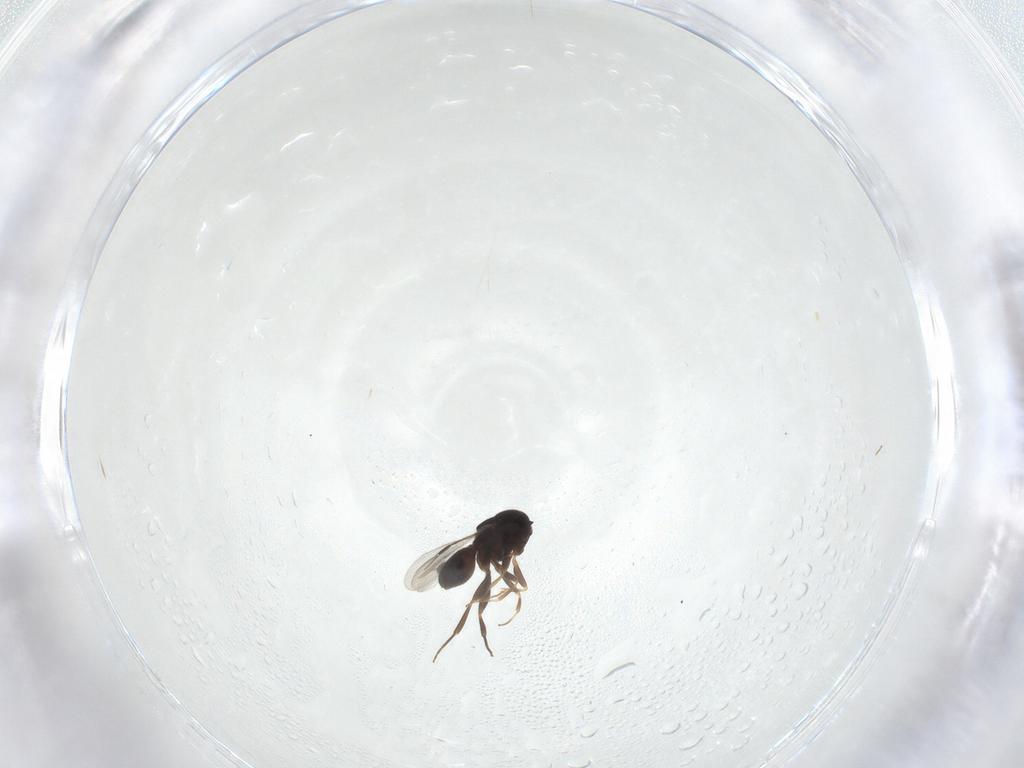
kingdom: Animalia
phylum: Arthropoda
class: Insecta
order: Hymenoptera
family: Megaspilidae
